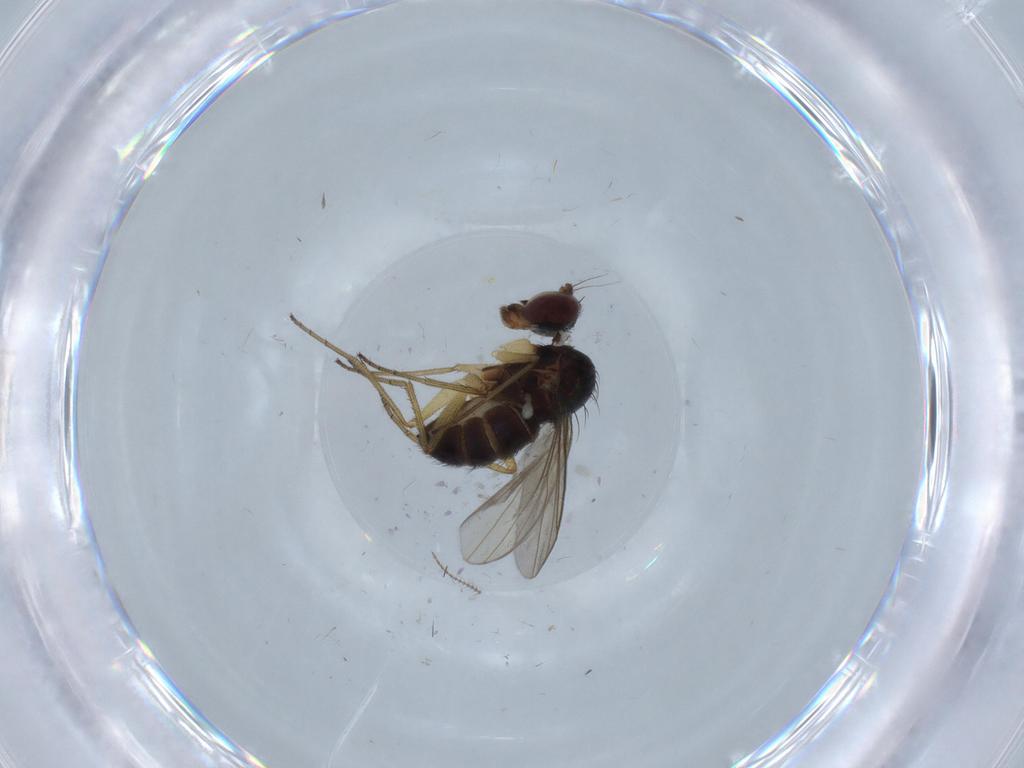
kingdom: Animalia
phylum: Arthropoda
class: Insecta
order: Diptera
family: Dolichopodidae
